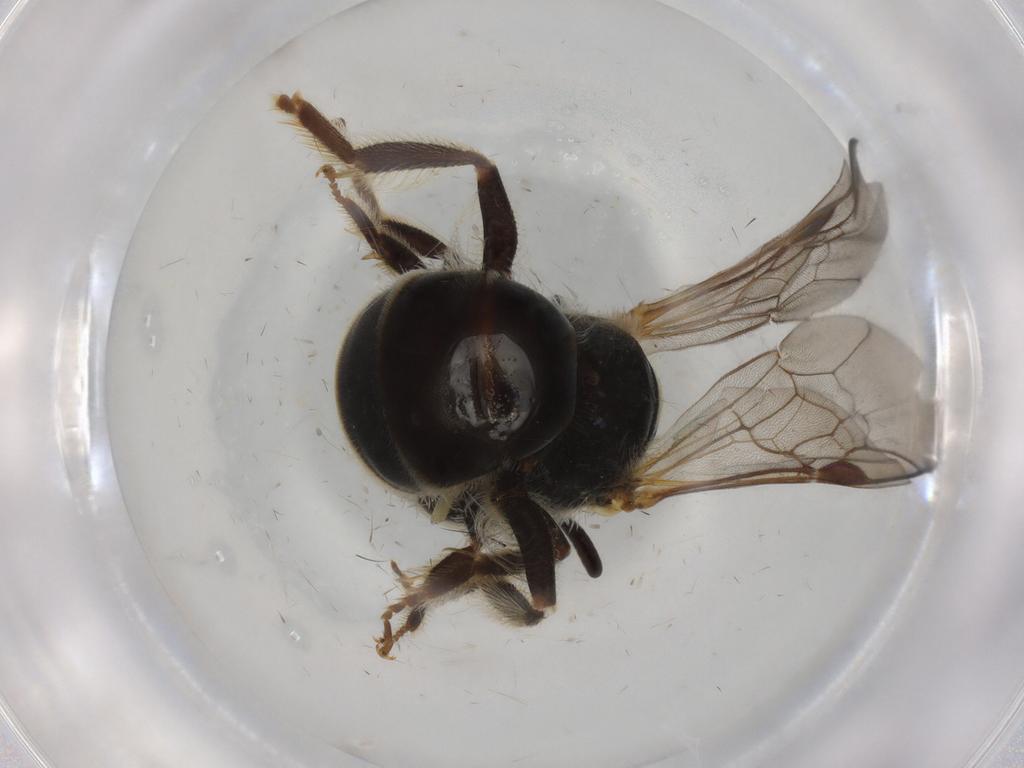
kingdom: Animalia
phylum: Arthropoda
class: Insecta
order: Hymenoptera
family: Halictidae
